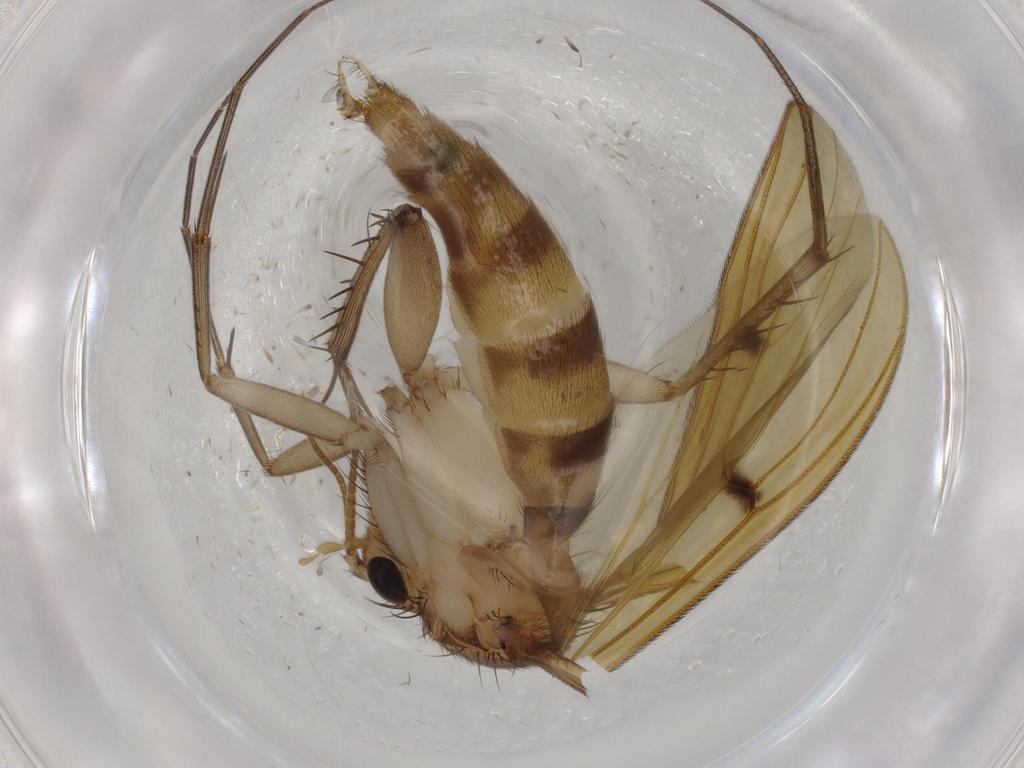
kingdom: Animalia
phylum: Arthropoda
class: Insecta
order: Diptera
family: Mycetophilidae
